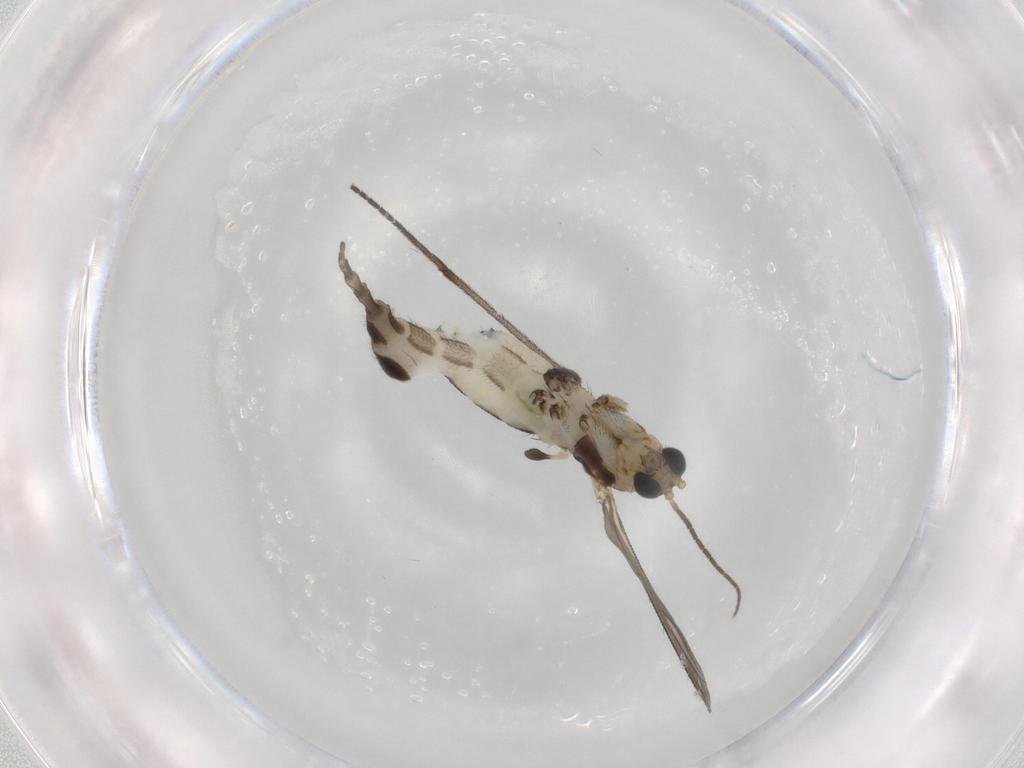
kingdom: Animalia
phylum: Arthropoda
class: Insecta
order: Diptera
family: Sciaridae
